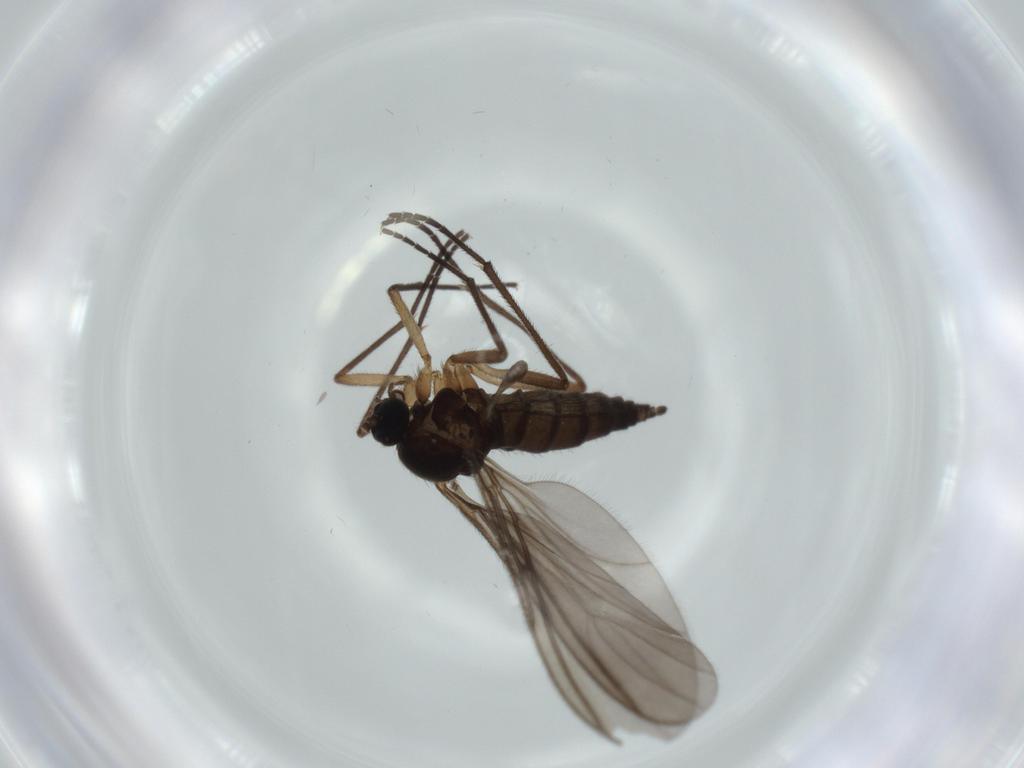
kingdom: Animalia
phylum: Arthropoda
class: Insecta
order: Diptera
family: Sciaridae
